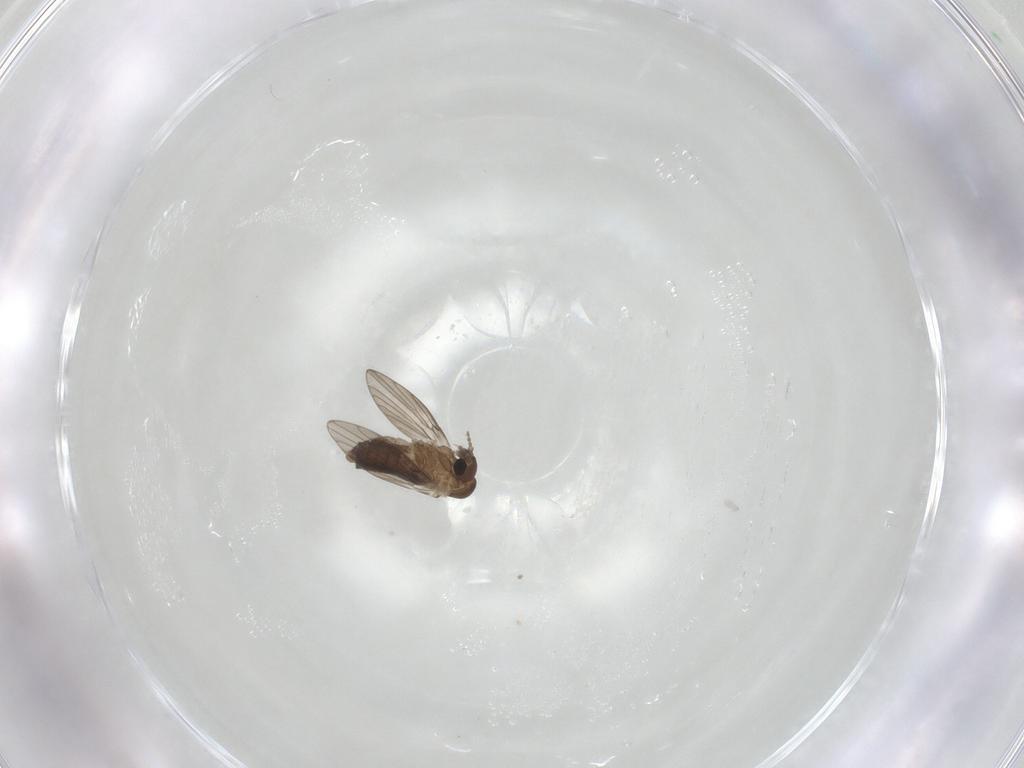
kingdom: Animalia
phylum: Arthropoda
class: Insecta
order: Diptera
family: Psychodidae
